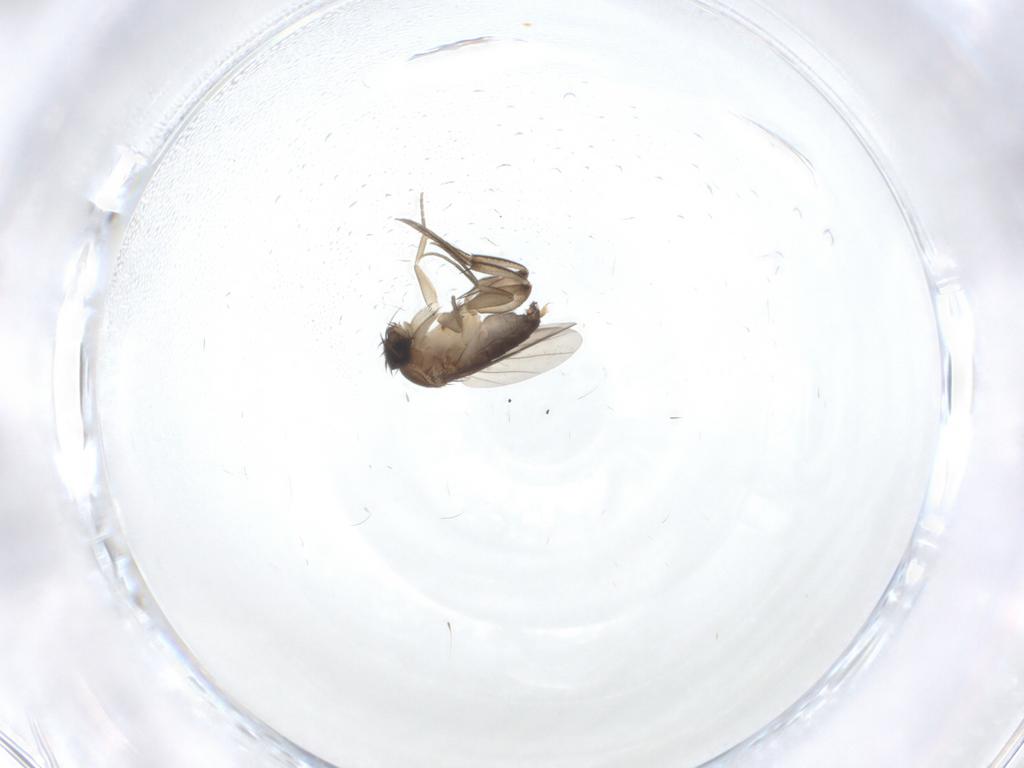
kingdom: Animalia
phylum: Arthropoda
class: Insecta
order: Diptera
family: Phoridae
